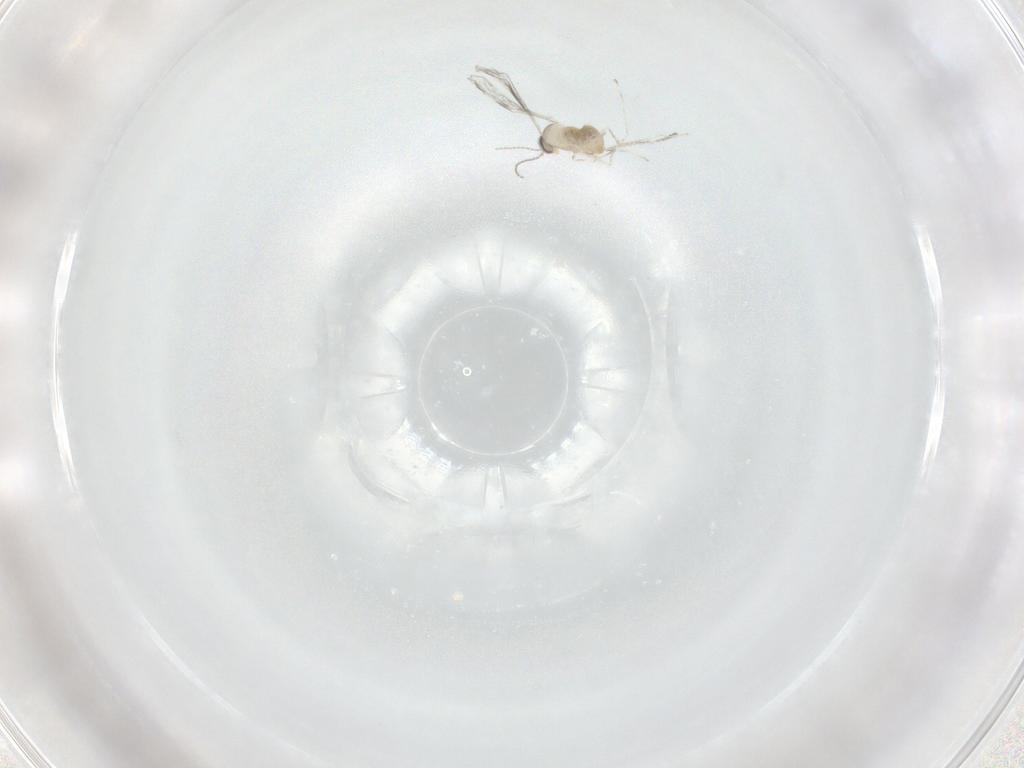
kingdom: Animalia
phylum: Arthropoda
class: Insecta
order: Diptera
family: Cecidomyiidae
